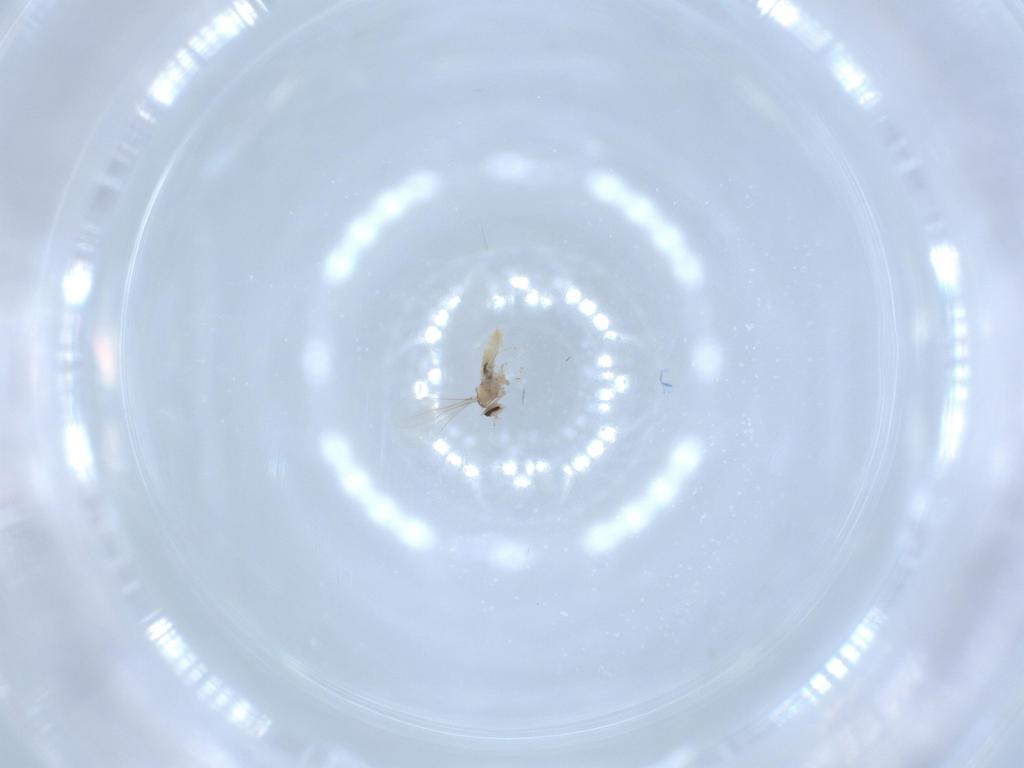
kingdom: Animalia
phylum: Arthropoda
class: Insecta
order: Diptera
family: Cecidomyiidae
